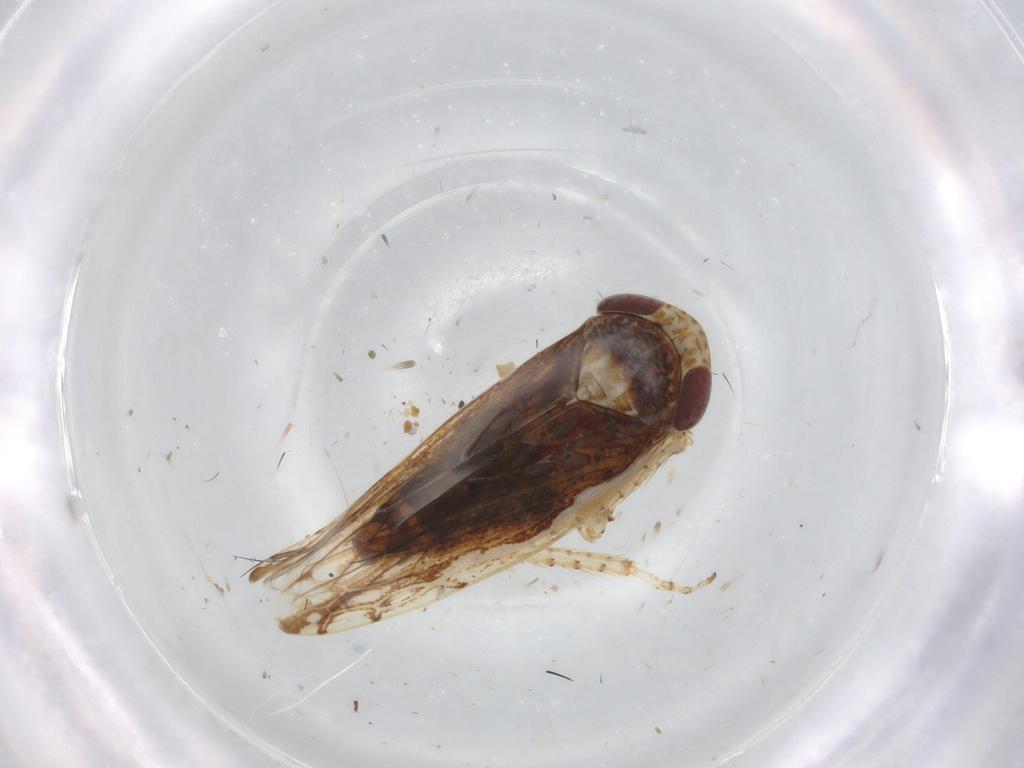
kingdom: Animalia
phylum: Arthropoda
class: Insecta
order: Hemiptera
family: Cicadellidae
